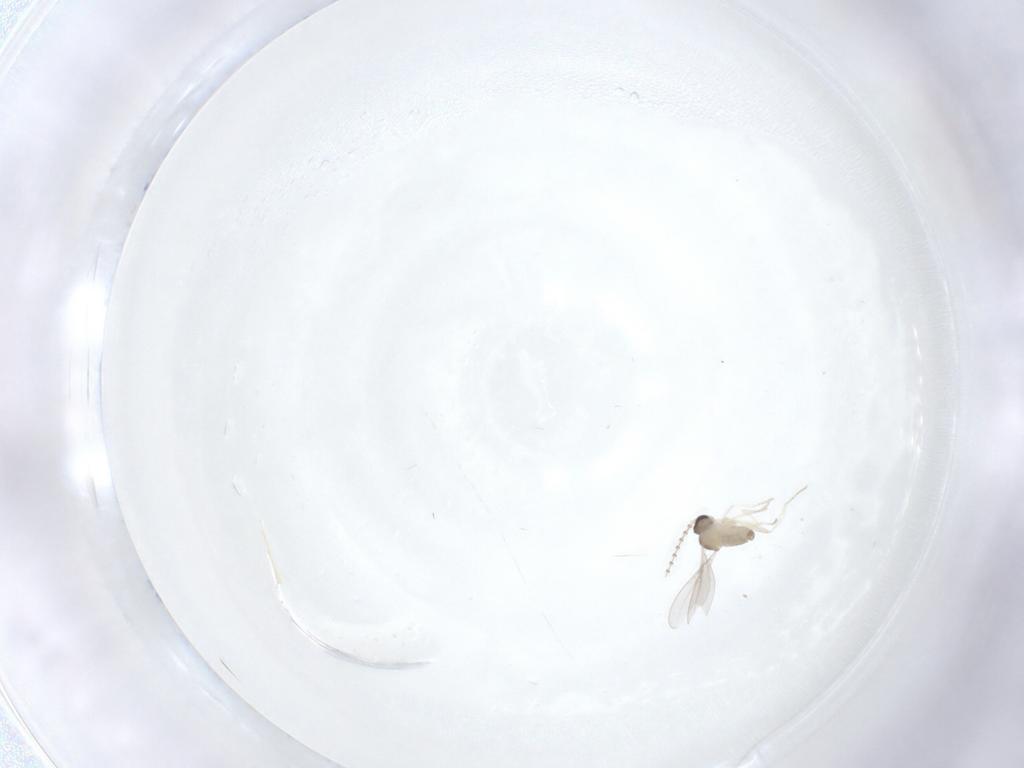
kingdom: Animalia
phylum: Arthropoda
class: Insecta
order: Diptera
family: Cecidomyiidae
